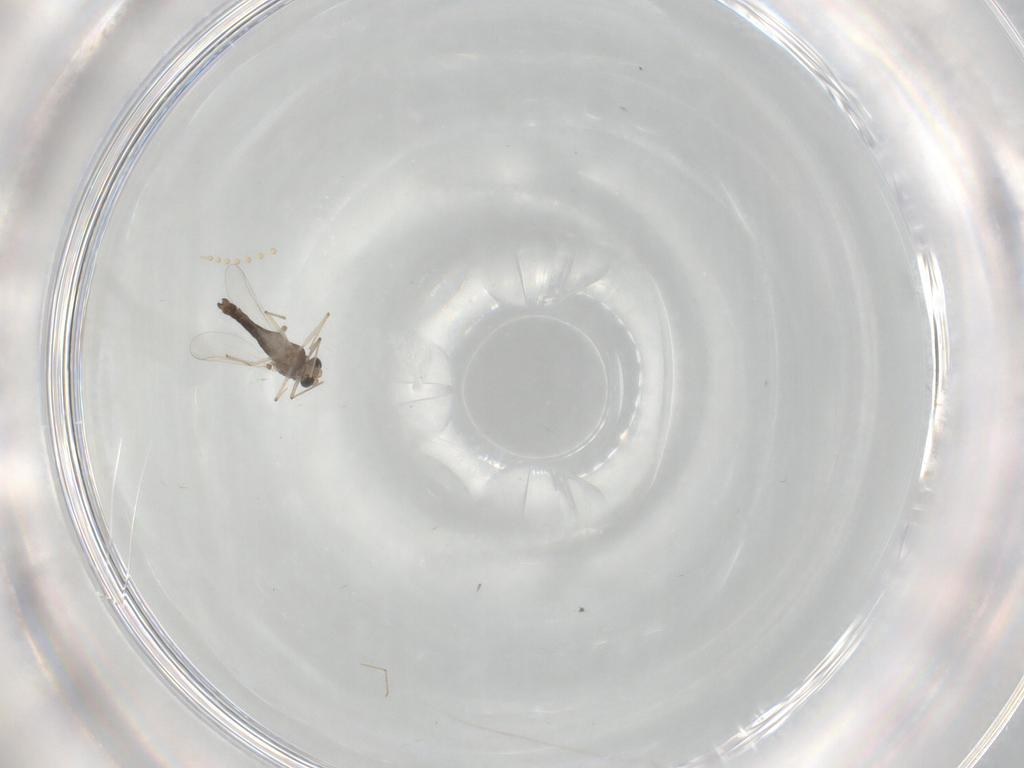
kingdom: Animalia
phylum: Arthropoda
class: Insecta
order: Diptera
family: Psychodidae
